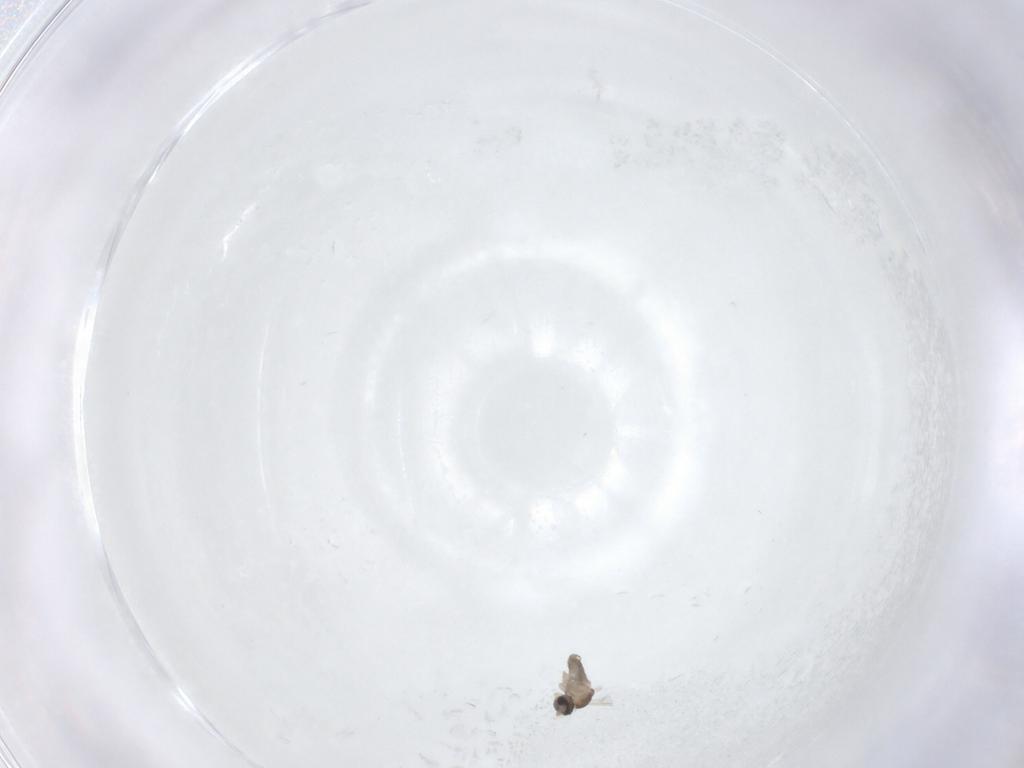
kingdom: Animalia
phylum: Arthropoda
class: Insecta
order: Diptera
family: Cecidomyiidae
